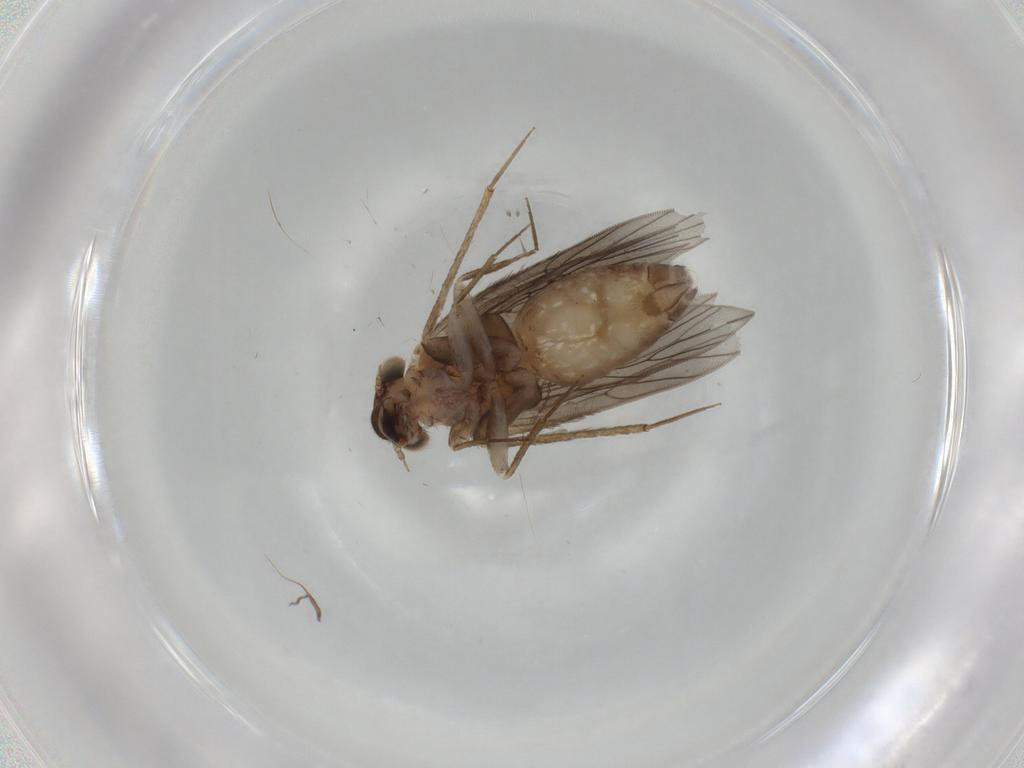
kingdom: Animalia
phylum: Arthropoda
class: Insecta
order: Psocodea
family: Lepidopsocidae
